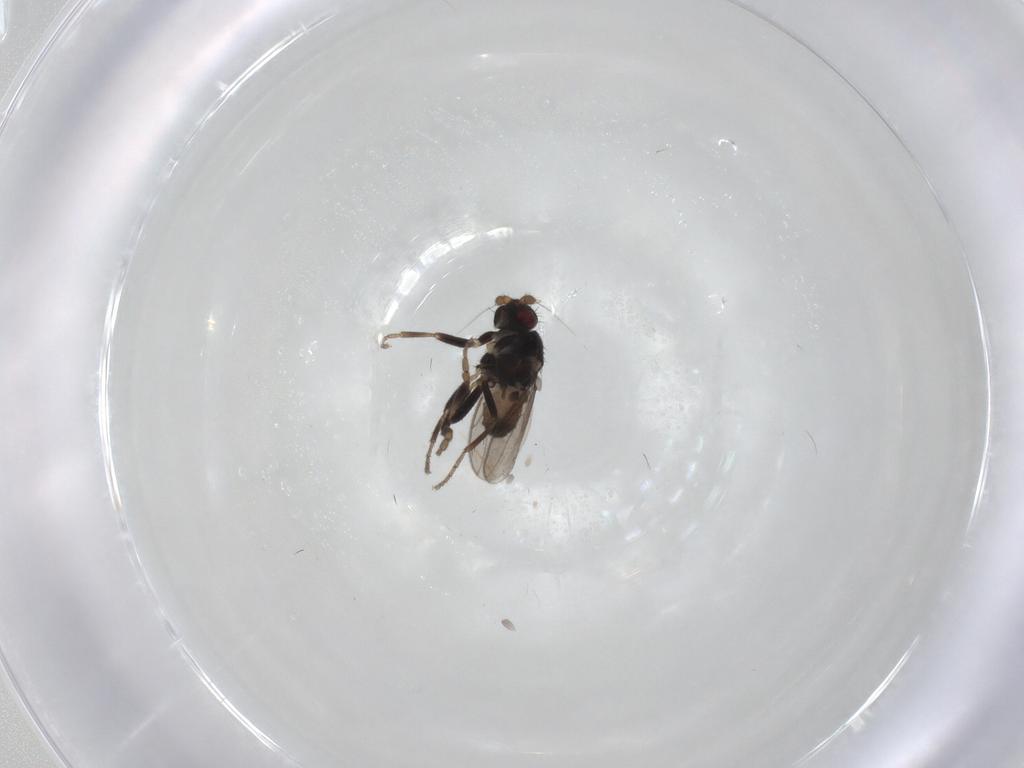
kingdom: Animalia
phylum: Arthropoda
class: Insecta
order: Diptera
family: Sphaeroceridae
